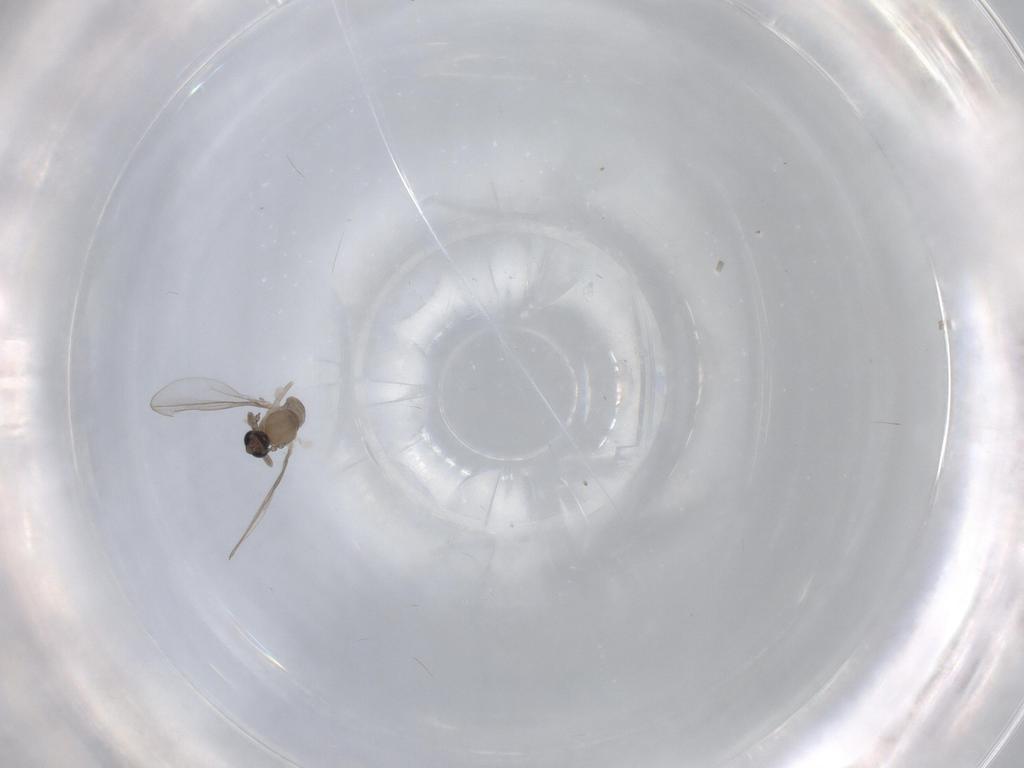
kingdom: Animalia
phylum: Arthropoda
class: Insecta
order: Diptera
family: Cecidomyiidae
